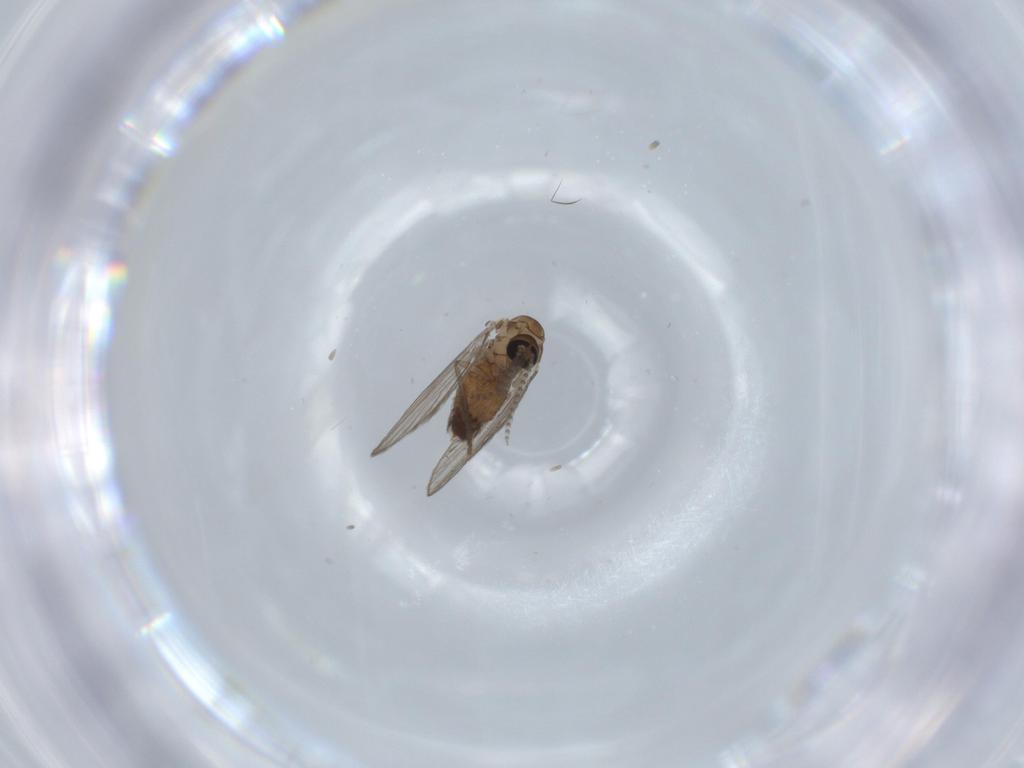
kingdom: Animalia
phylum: Arthropoda
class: Insecta
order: Diptera
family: Psychodidae
